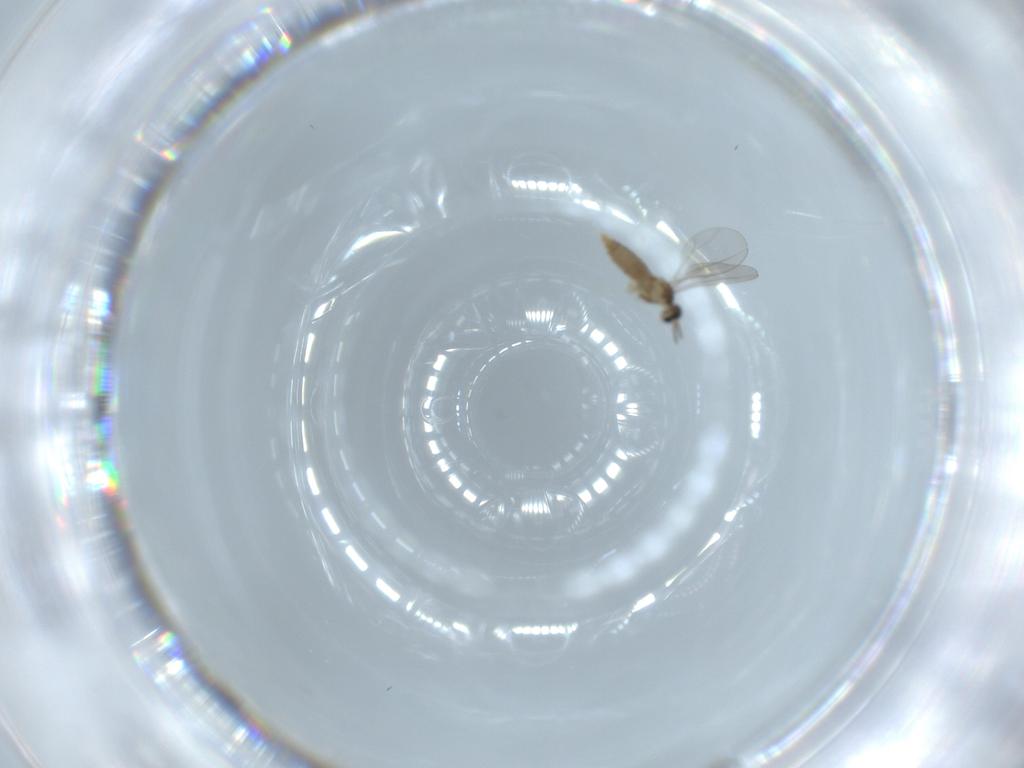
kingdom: Animalia
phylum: Arthropoda
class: Insecta
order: Diptera
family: Cecidomyiidae
